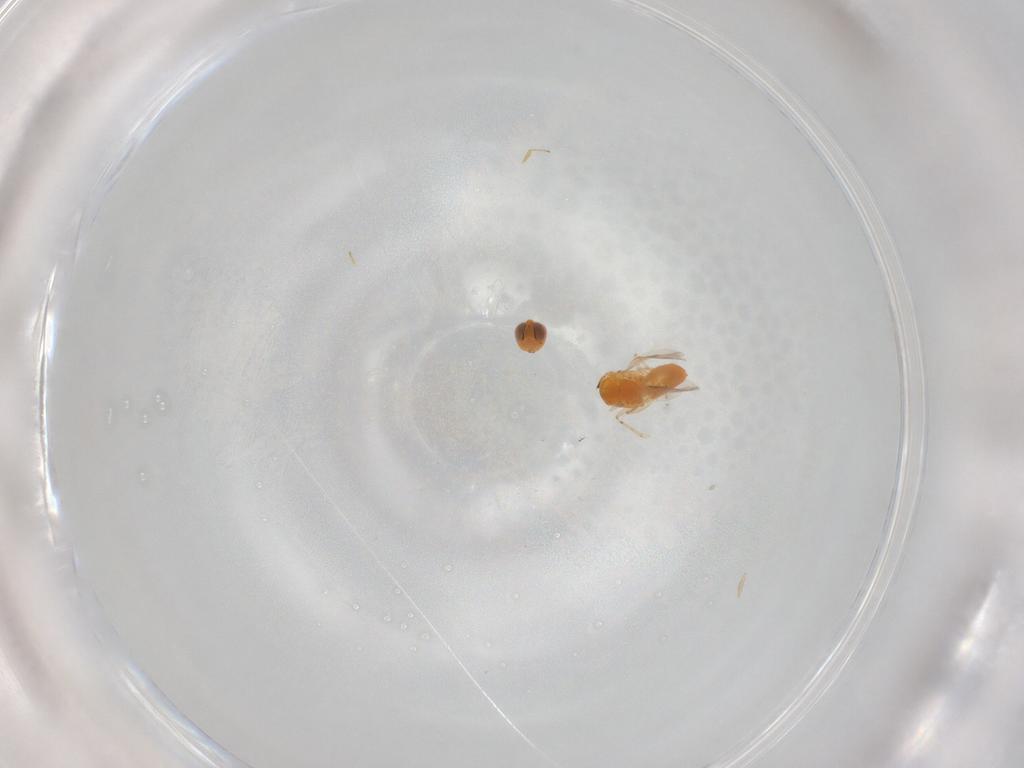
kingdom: Animalia
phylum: Arthropoda
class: Insecta
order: Hymenoptera
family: Encyrtidae
